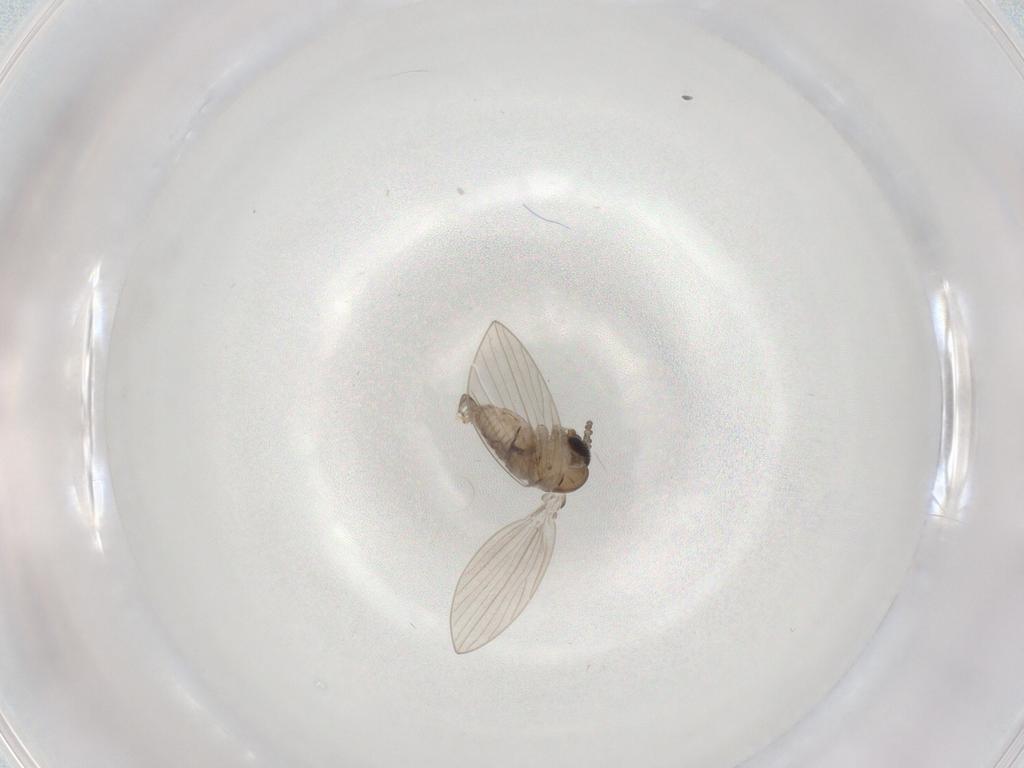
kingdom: Animalia
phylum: Arthropoda
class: Insecta
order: Diptera
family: Psychodidae
